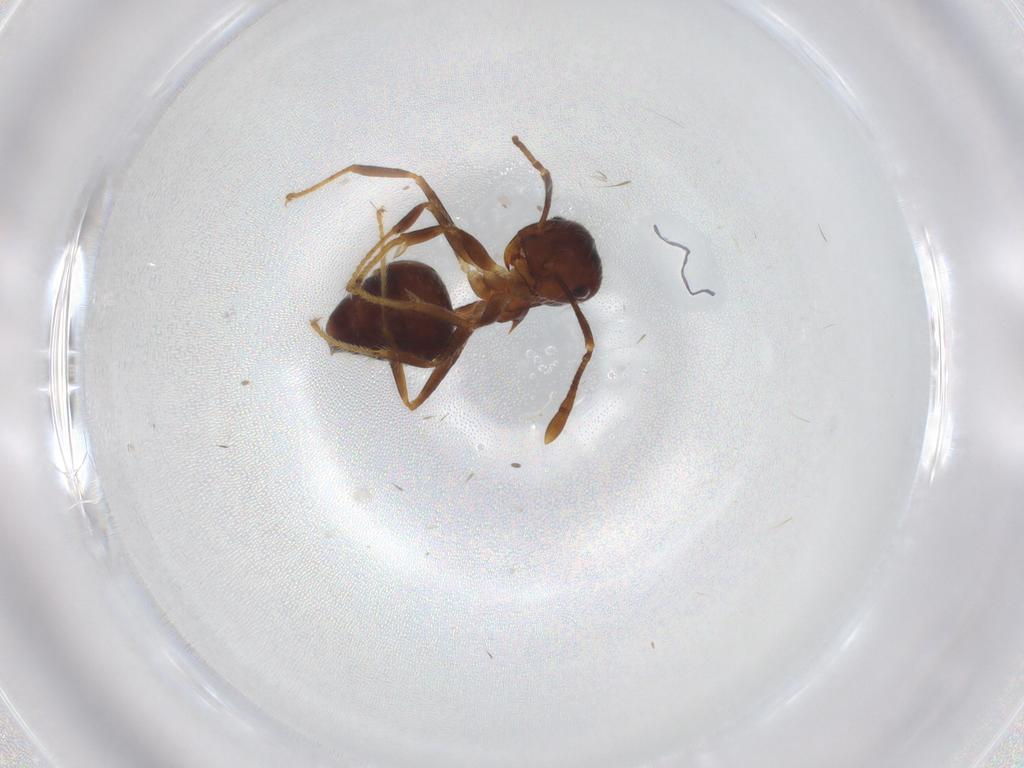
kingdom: Animalia
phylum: Arthropoda
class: Insecta
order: Hymenoptera
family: Formicidae
